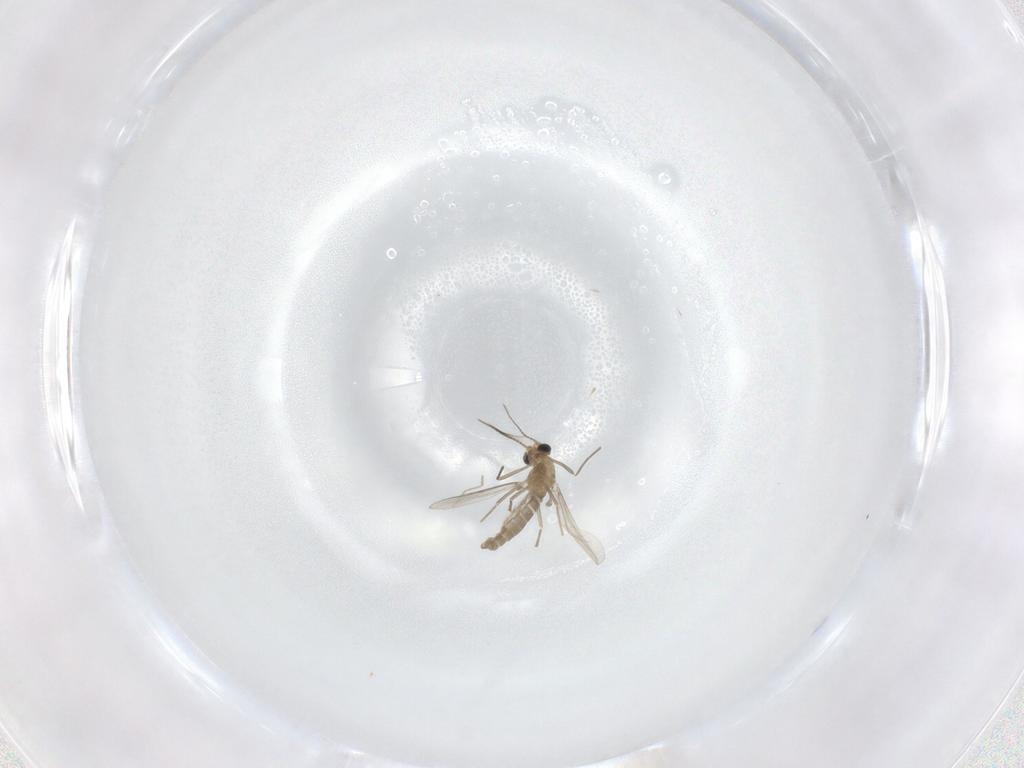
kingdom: Animalia
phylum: Arthropoda
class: Insecta
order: Diptera
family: Chironomidae
